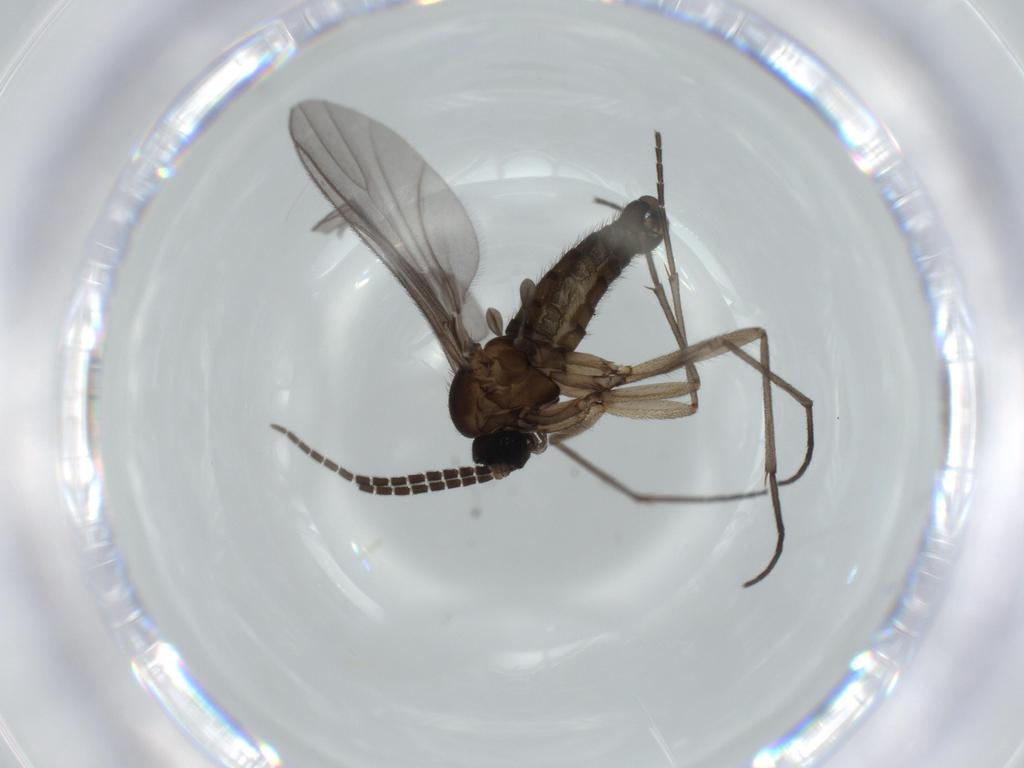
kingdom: Animalia
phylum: Arthropoda
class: Insecta
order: Diptera
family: Sciaridae
